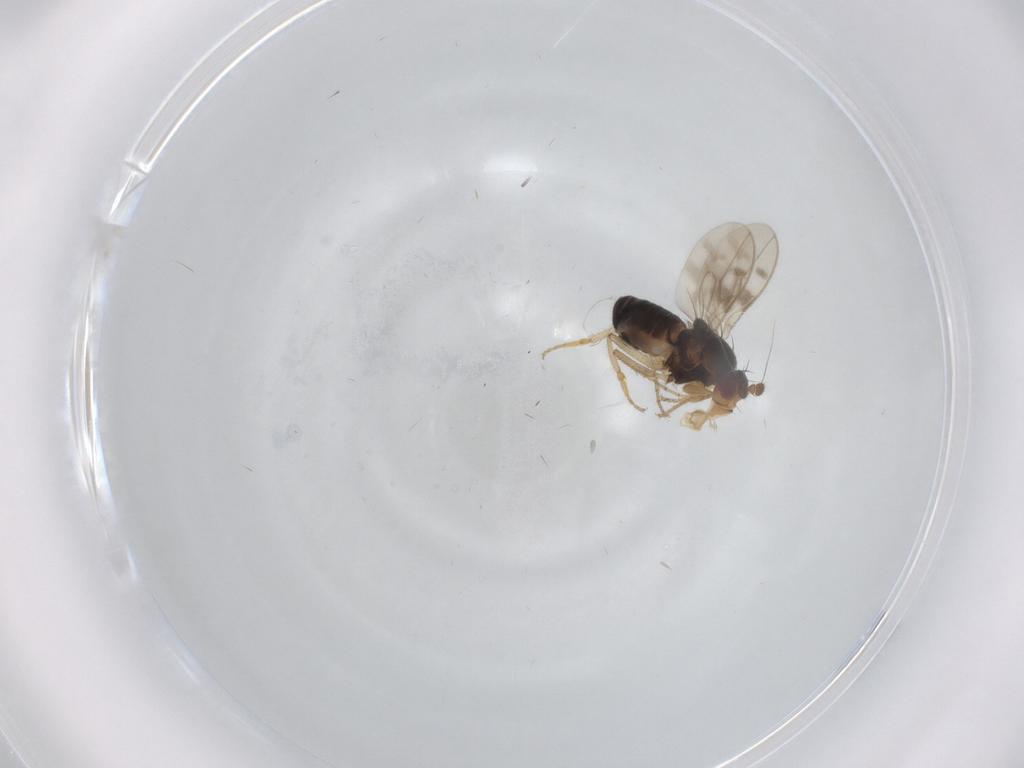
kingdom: Animalia
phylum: Arthropoda
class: Insecta
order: Diptera
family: Sphaeroceridae
